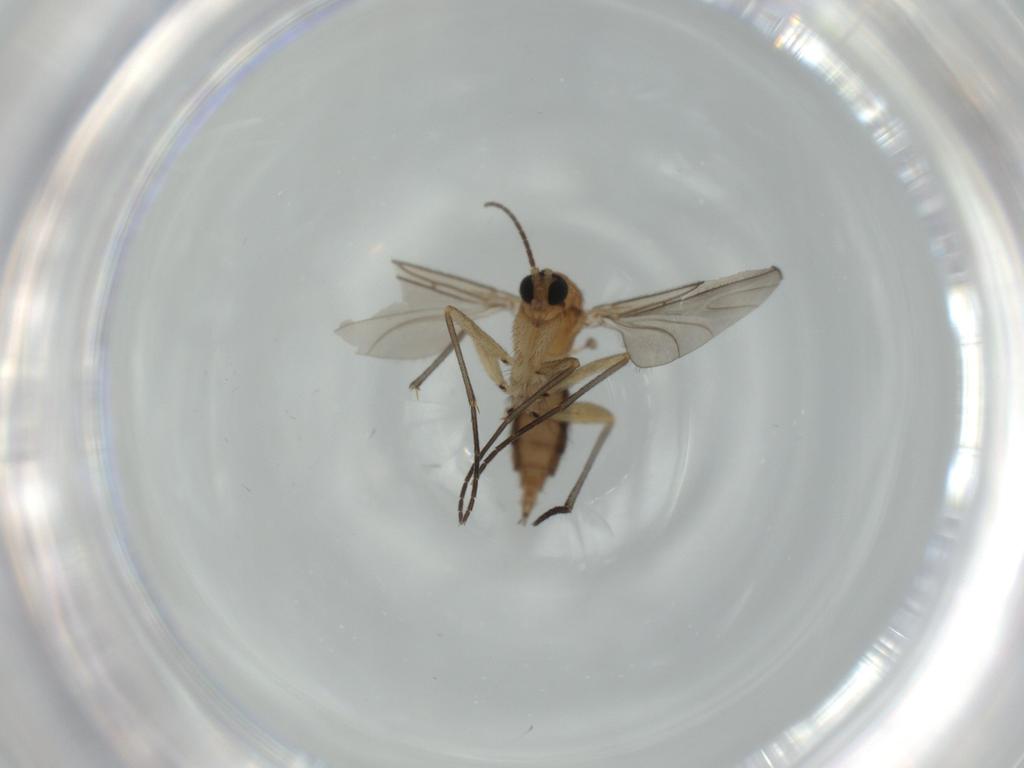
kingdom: Animalia
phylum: Arthropoda
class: Insecta
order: Diptera
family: Sciaridae
